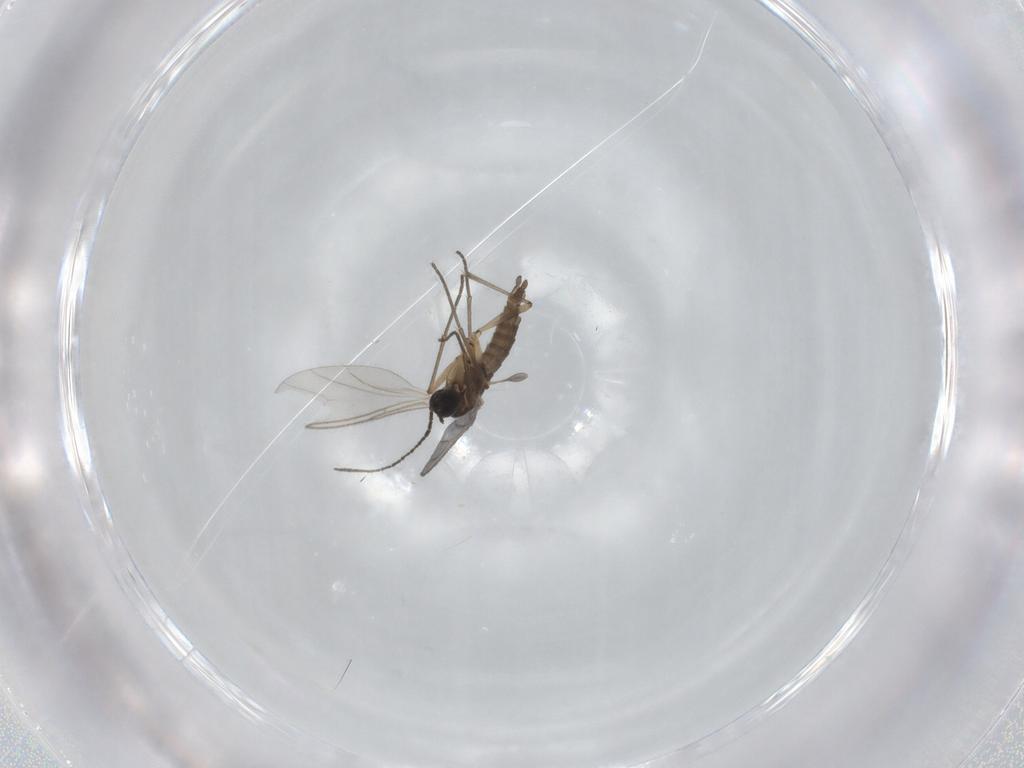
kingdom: Animalia
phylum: Arthropoda
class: Insecta
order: Diptera
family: Sciaridae
